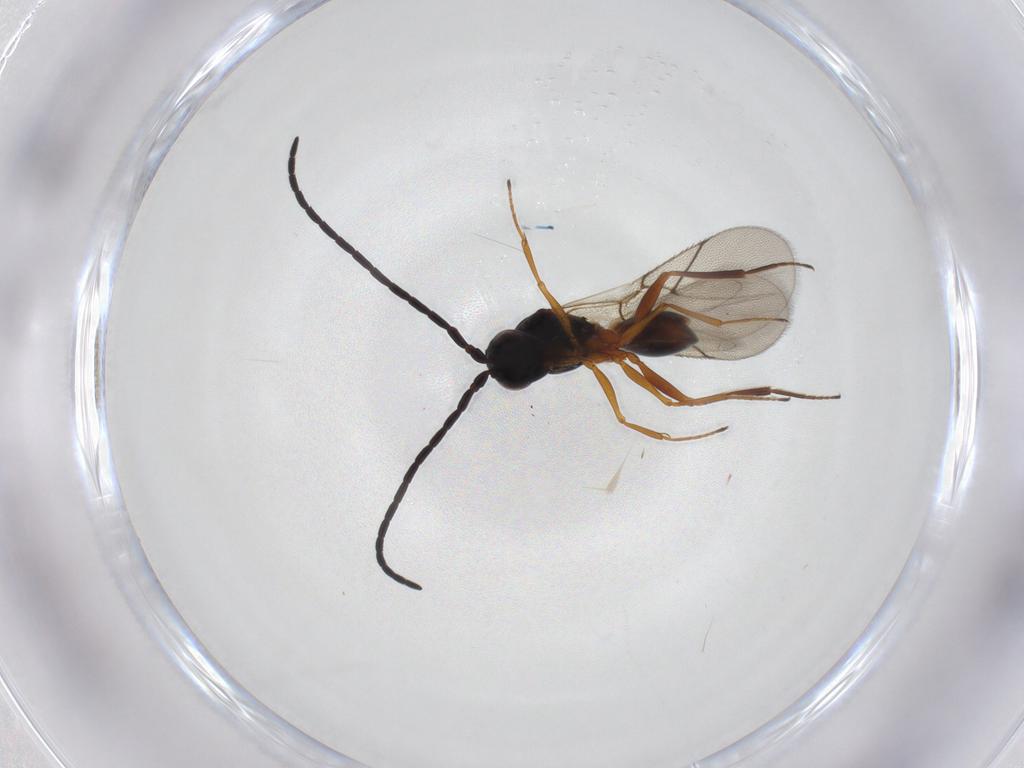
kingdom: Animalia
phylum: Arthropoda
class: Insecta
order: Hymenoptera
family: Figitidae
